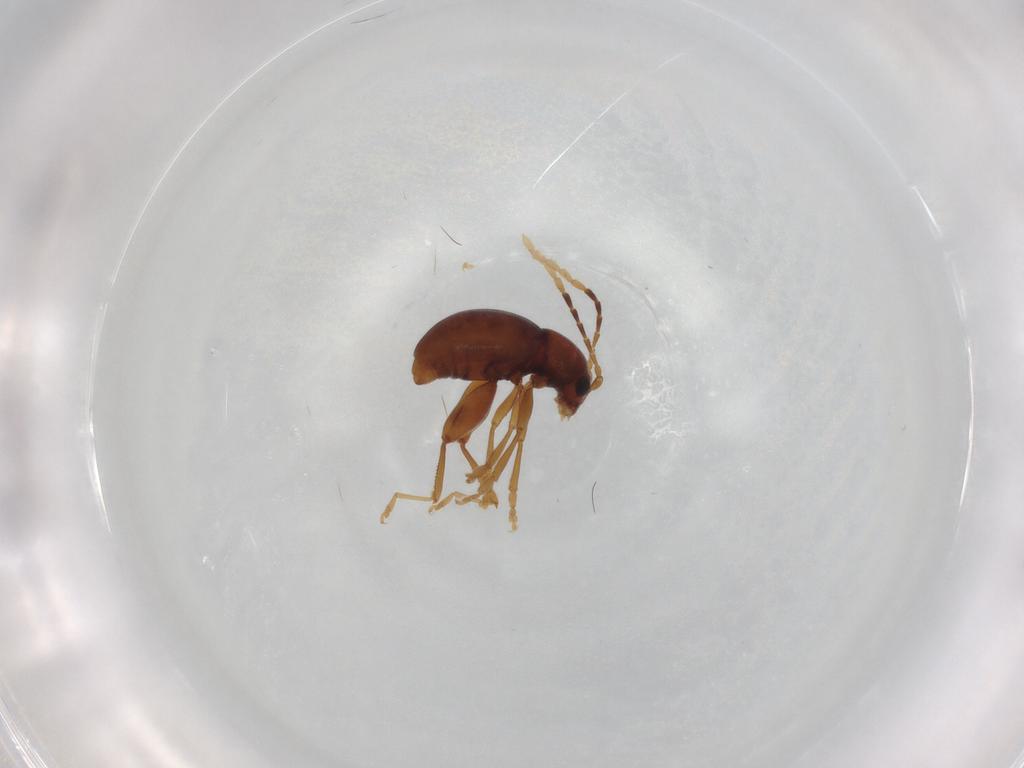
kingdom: Animalia
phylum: Arthropoda
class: Insecta
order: Coleoptera
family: Chrysomelidae
